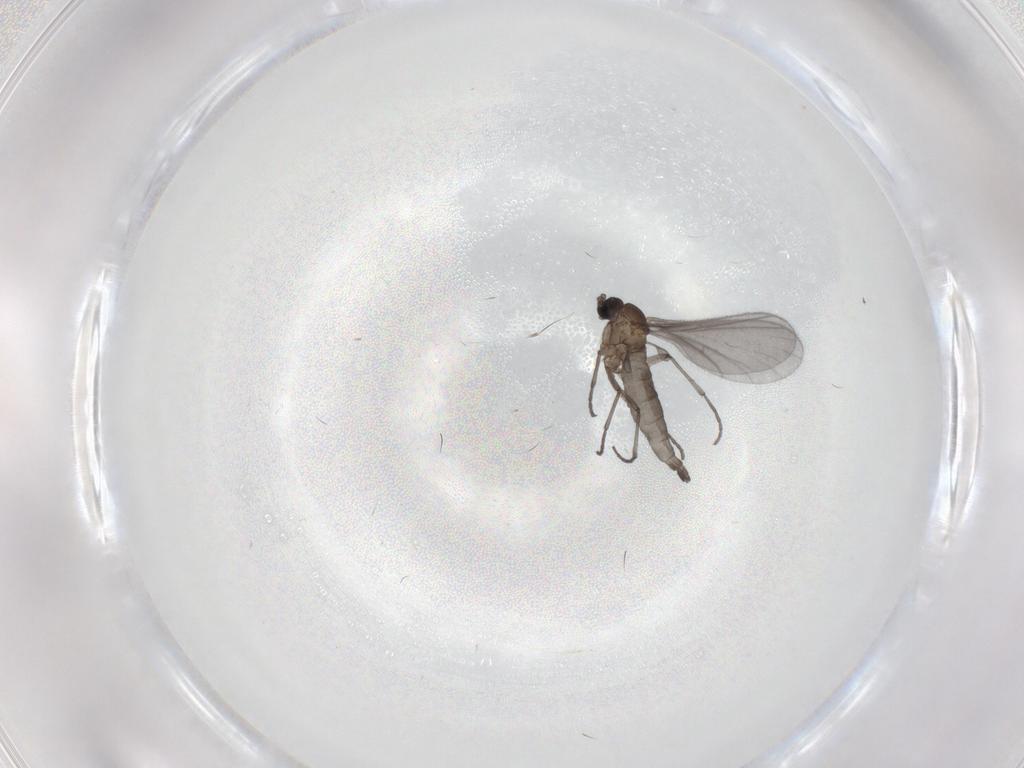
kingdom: Animalia
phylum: Arthropoda
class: Insecta
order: Diptera
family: Sciaridae
